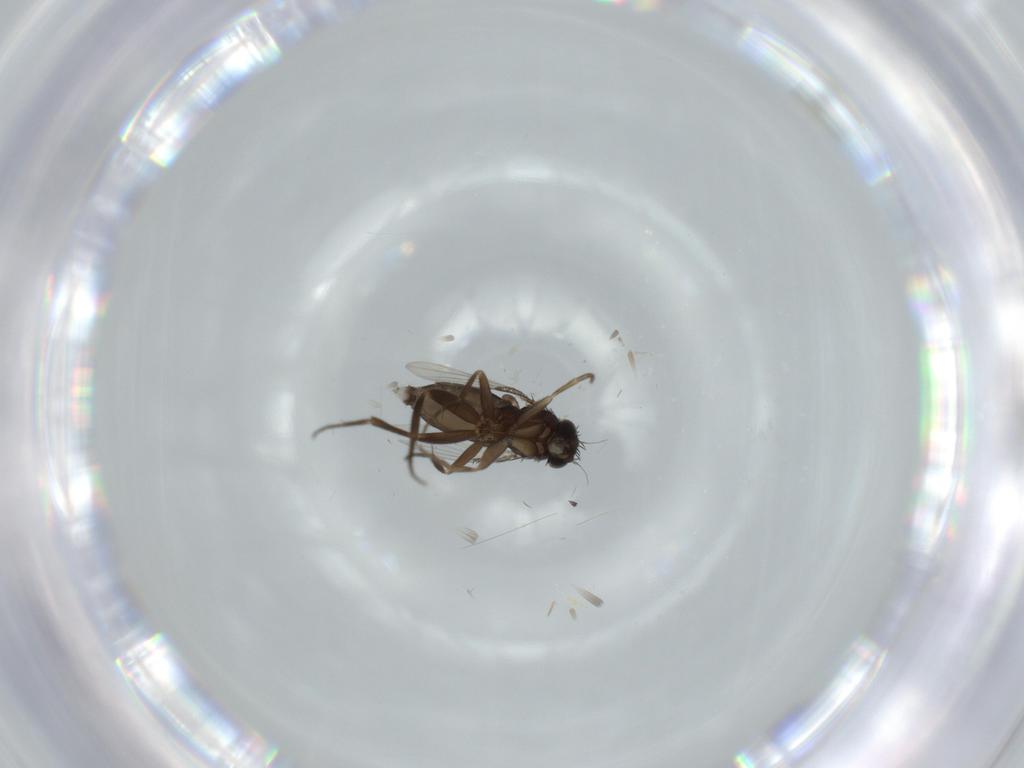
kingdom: Animalia
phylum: Arthropoda
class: Insecta
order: Diptera
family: Phoridae
